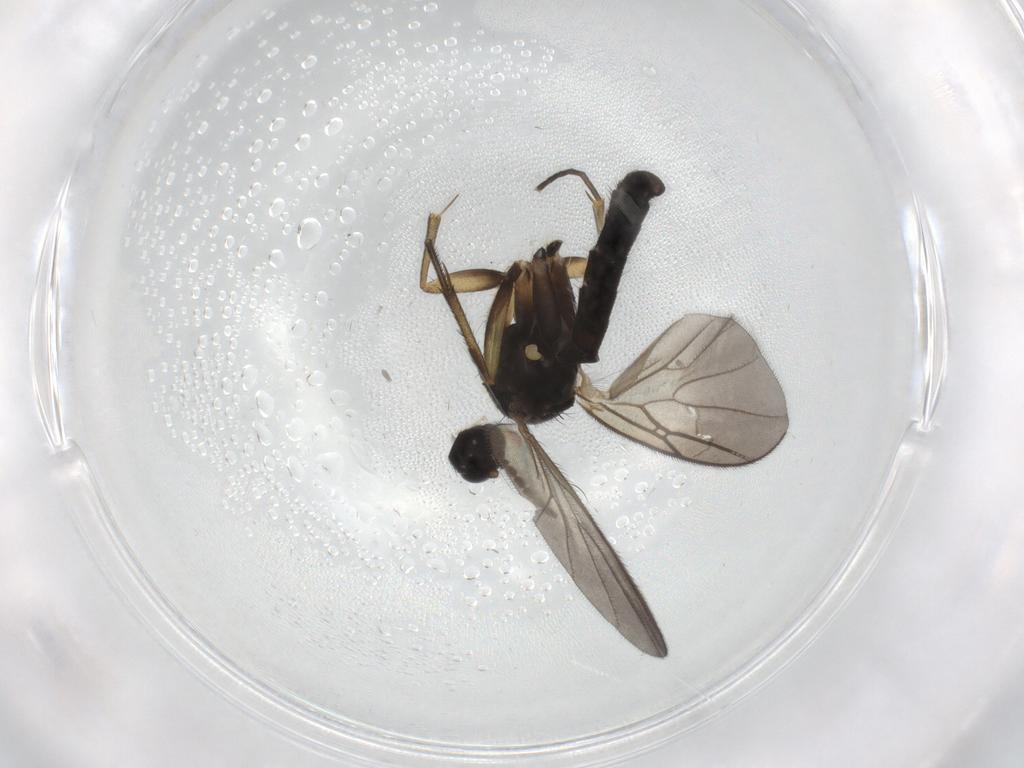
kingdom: Animalia
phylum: Arthropoda
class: Insecta
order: Diptera
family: Mycetophilidae
